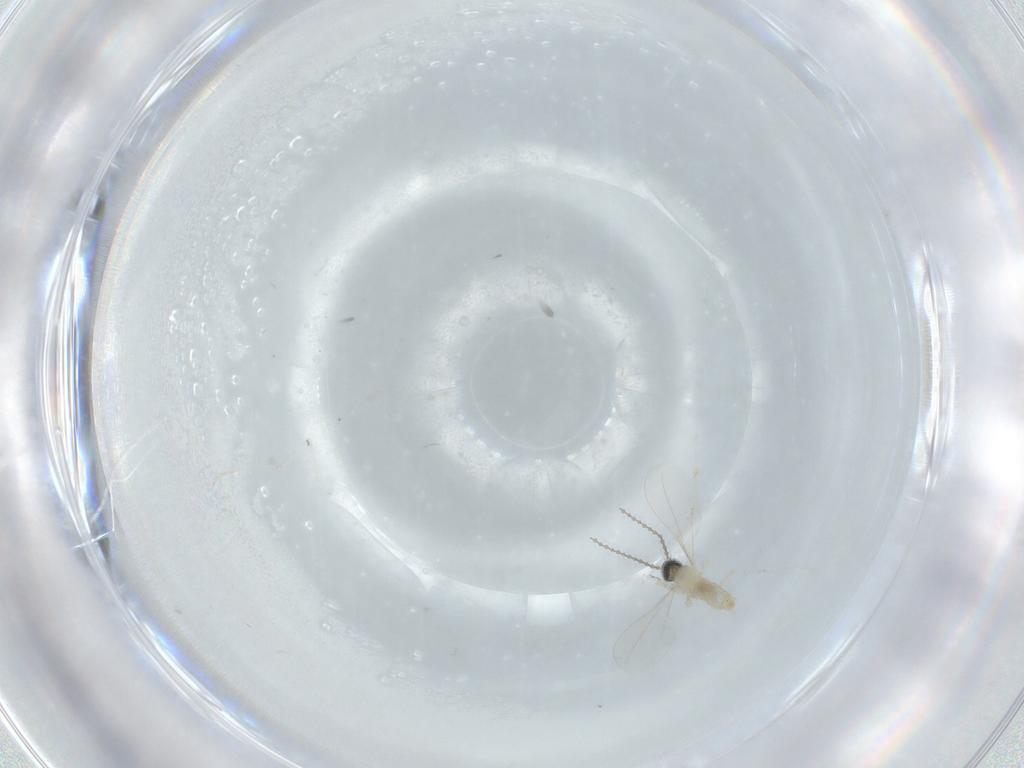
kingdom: Animalia
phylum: Arthropoda
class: Insecta
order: Diptera
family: Cecidomyiidae
